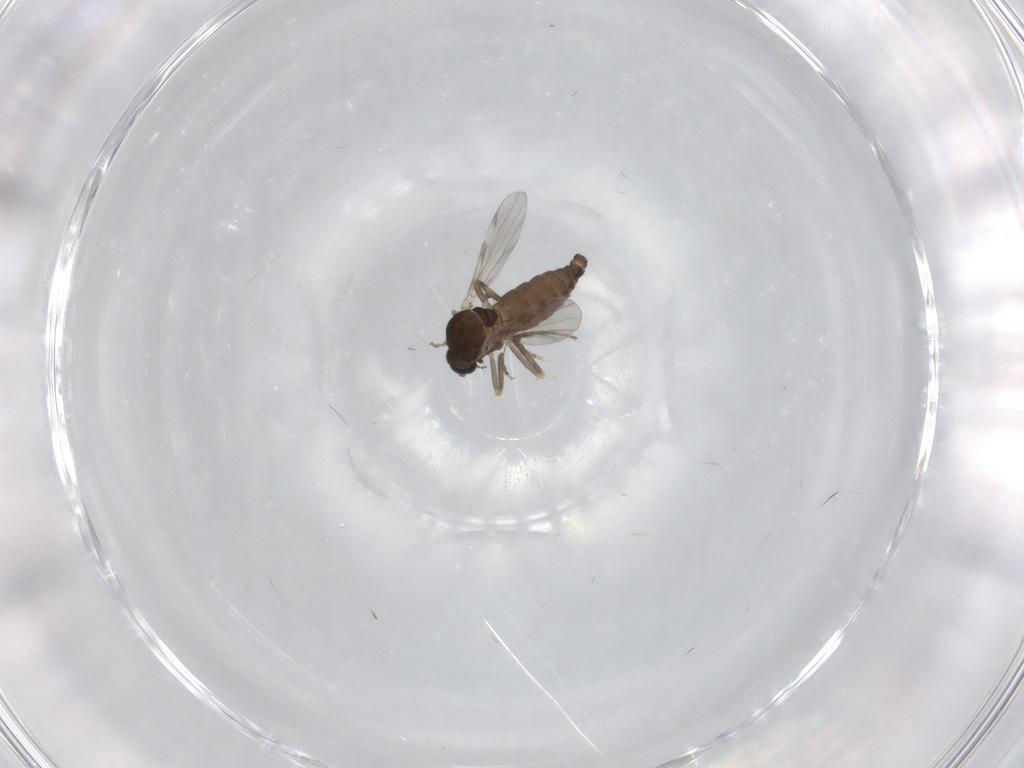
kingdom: Animalia
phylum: Arthropoda
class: Insecta
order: Diptera
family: Ceratopogonidae
